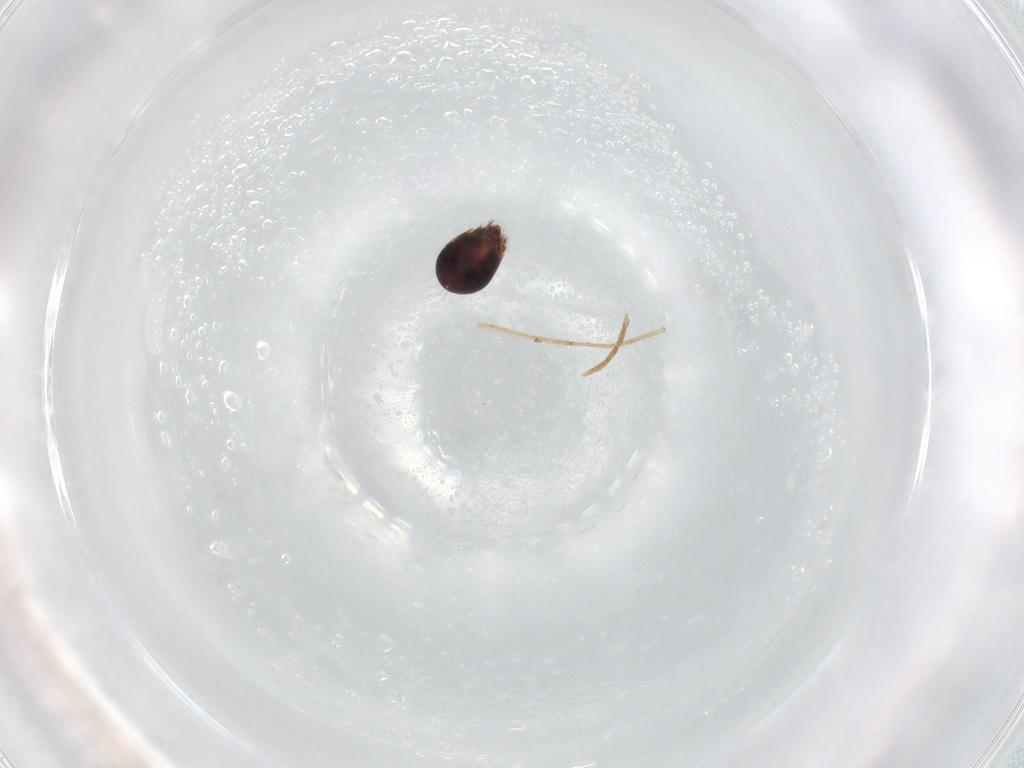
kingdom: Animalia
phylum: Arthropoda
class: Arachnida
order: Sarcoptiformes
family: Humerobatidae
